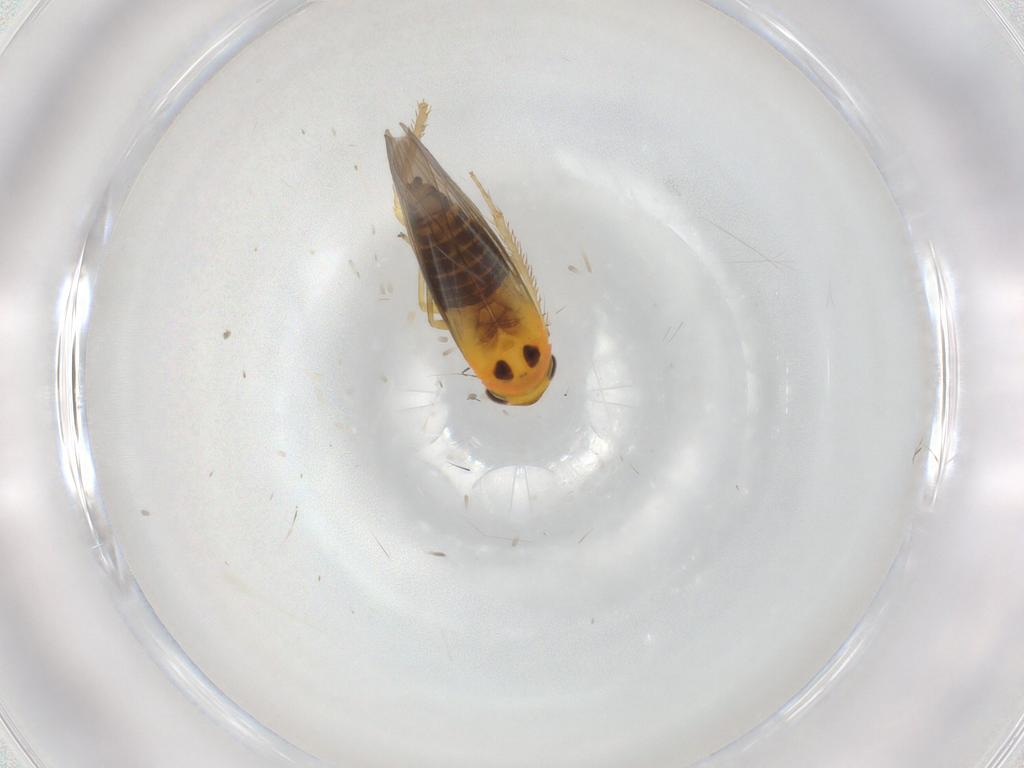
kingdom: Animalia
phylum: Arthropoda
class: Insecta
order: Hemiptera
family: Cicadellidae
